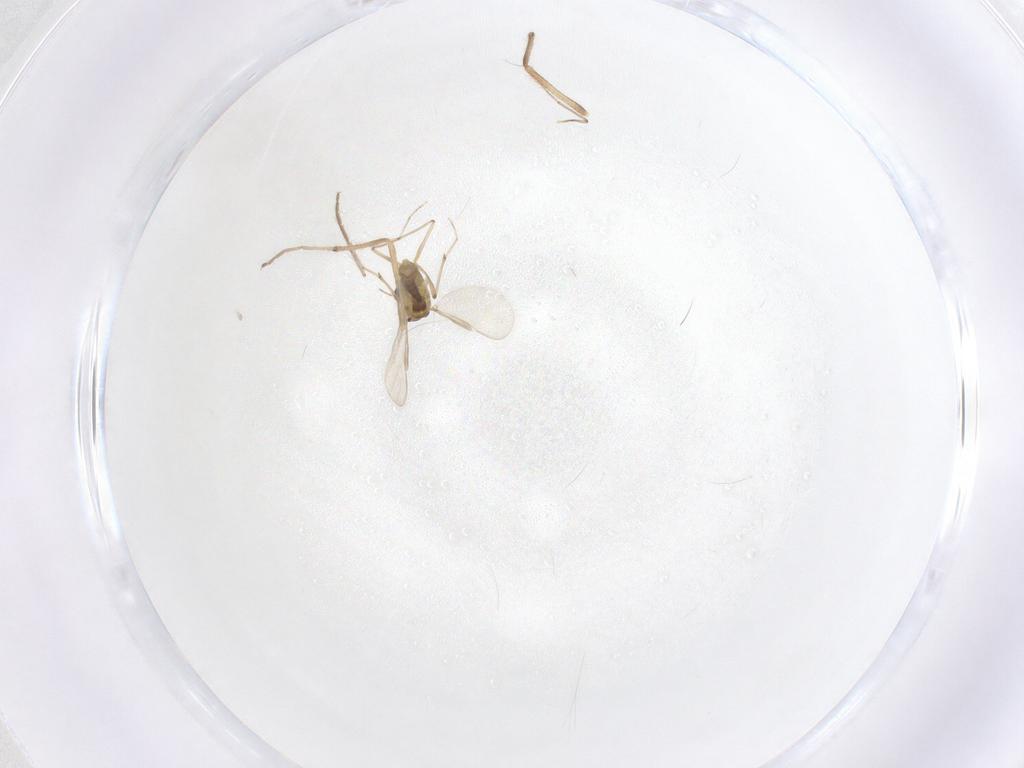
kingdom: Animalia
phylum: Arthropoda
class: Insecta
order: Diptera
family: Chironomidae
